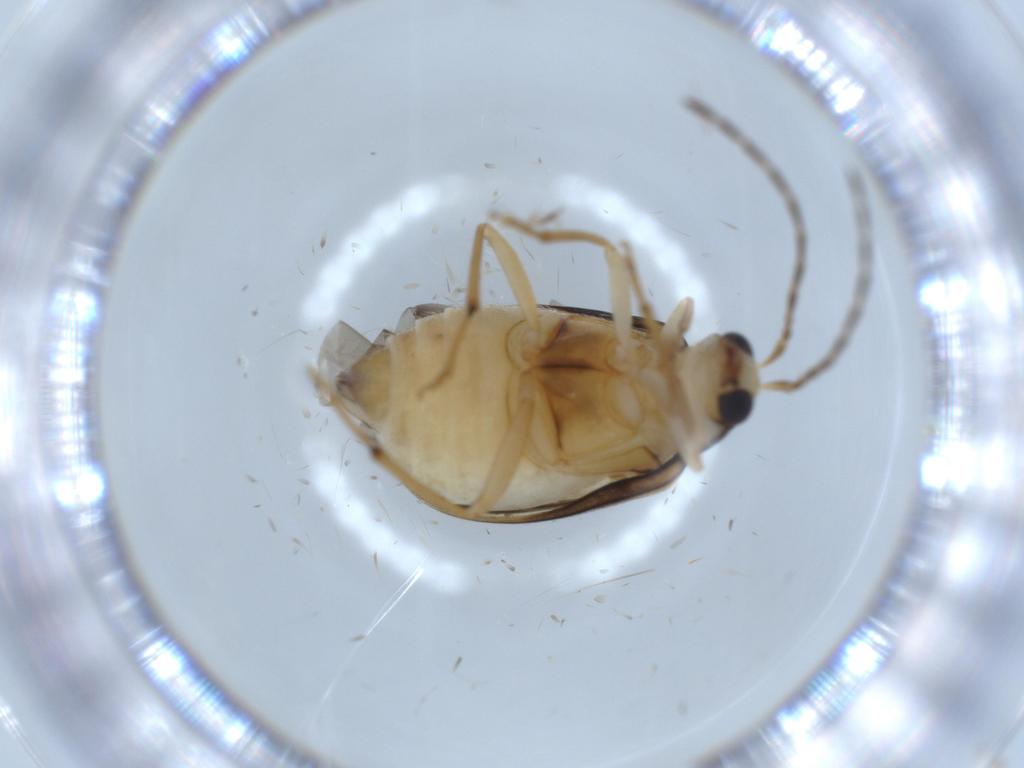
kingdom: Animalia
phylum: Arthropoda
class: Insecta
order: Coleoptera
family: Chrysomelidae
